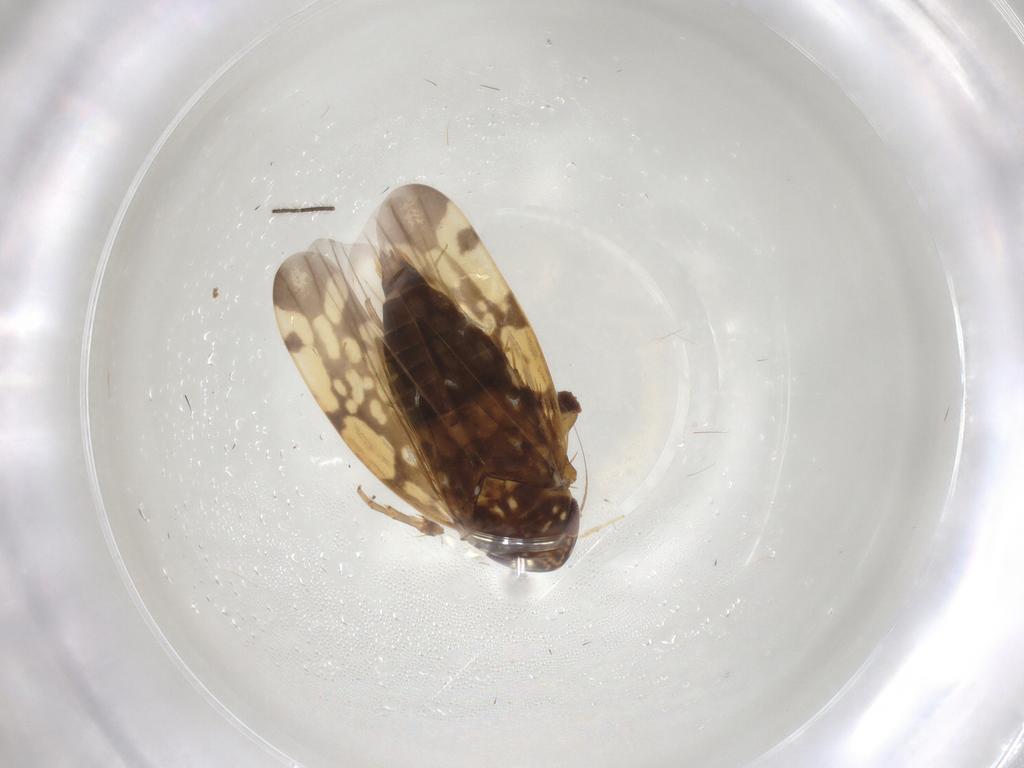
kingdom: Animalia
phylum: Arthropoda
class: Insecta
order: Hemiptera
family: Cicadellidae
